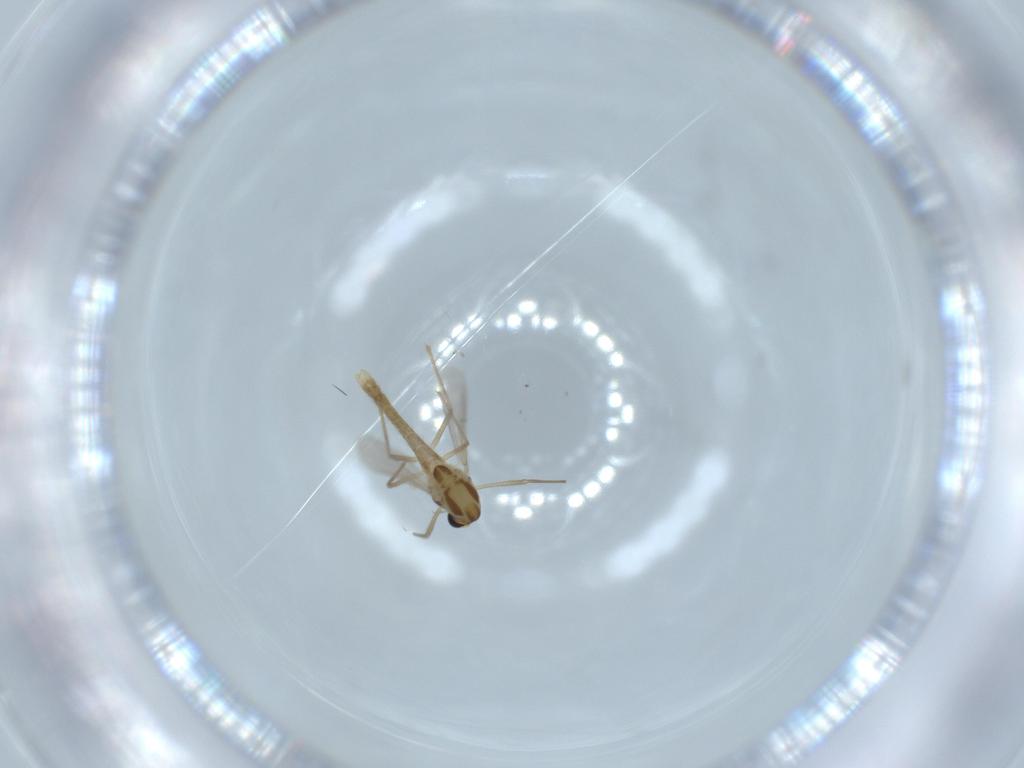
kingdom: Animalia
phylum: Arthropoda
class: Insecta
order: Diptera
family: Chironomidae
